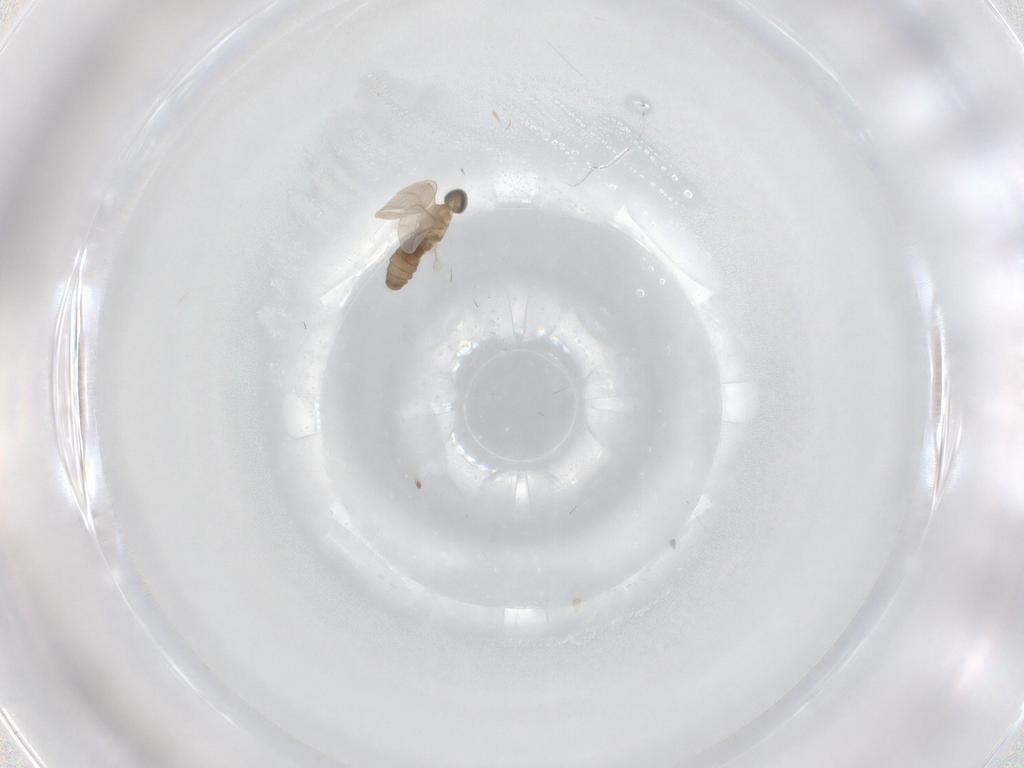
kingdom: Animalia
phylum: Arthropoda
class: Insecta
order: Diptera
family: Cecidomyiidae
